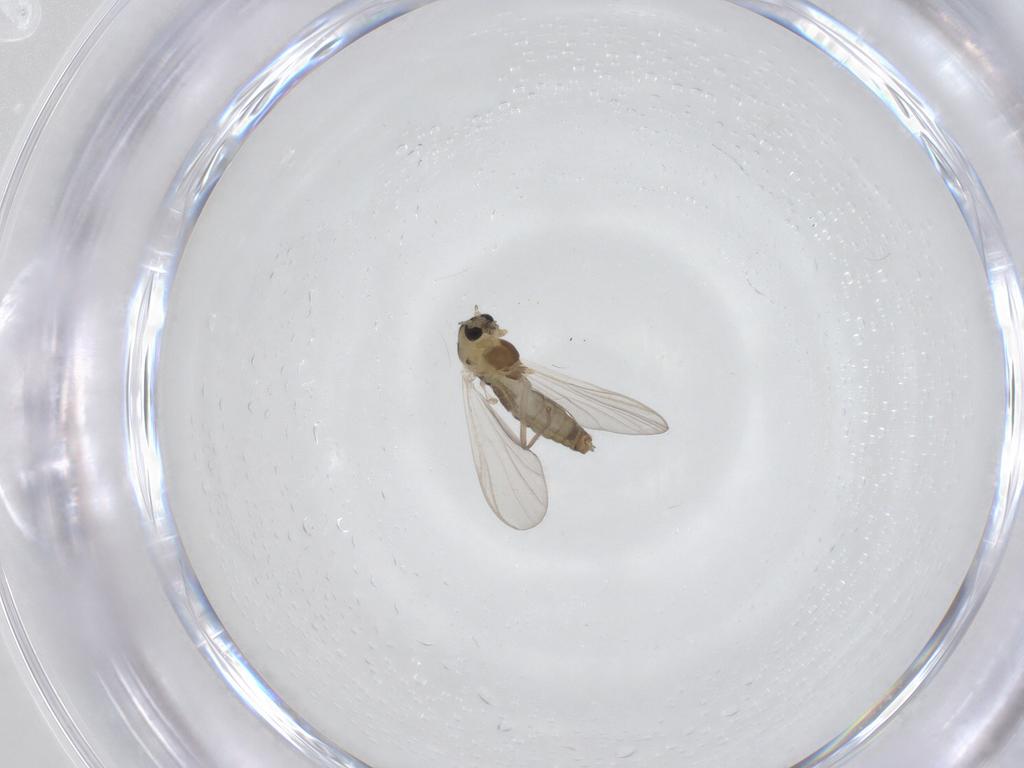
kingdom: Animalia
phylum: Arthropoda
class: Insecta
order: Diptera
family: Chironomidae
